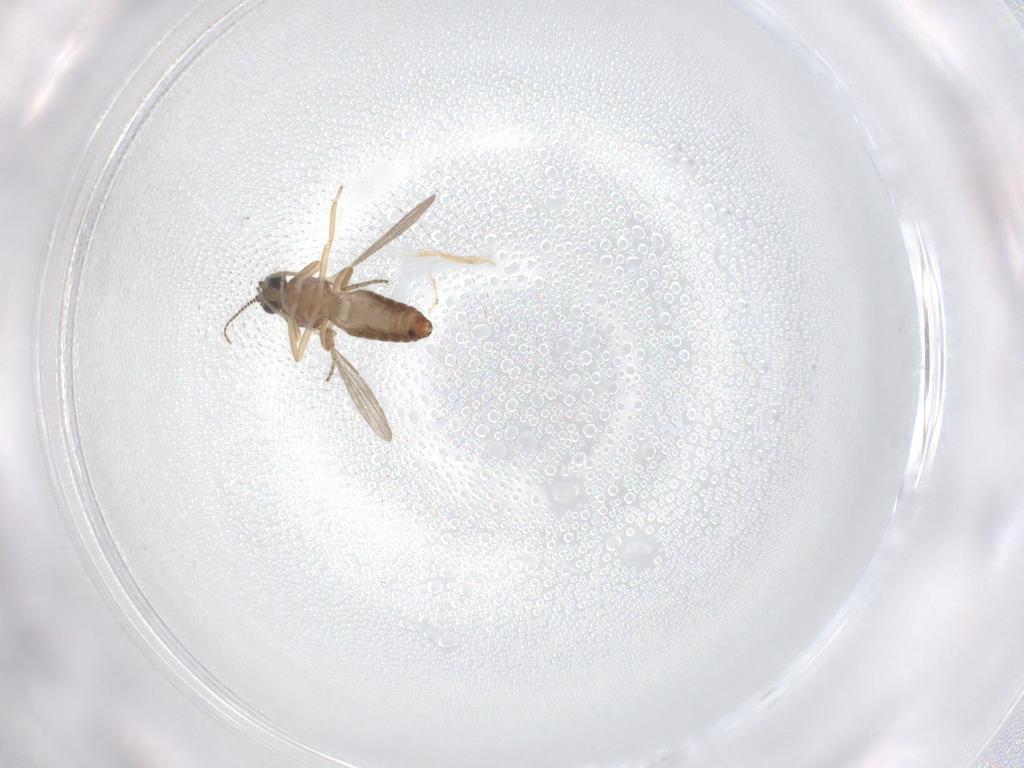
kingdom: Animalia
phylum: Arthropoda
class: Insecta
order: Diptera
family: Ceratopogonidae
